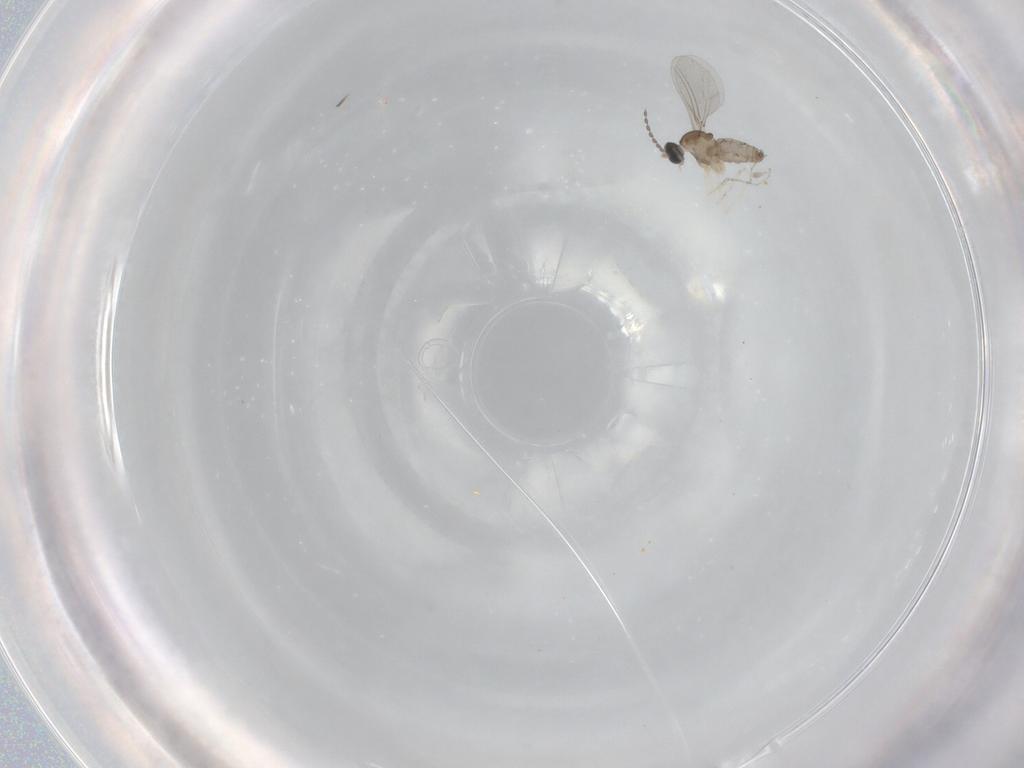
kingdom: Animalia
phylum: Arthropoda
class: Insecta
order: Diptera
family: Cecidomyiidae
